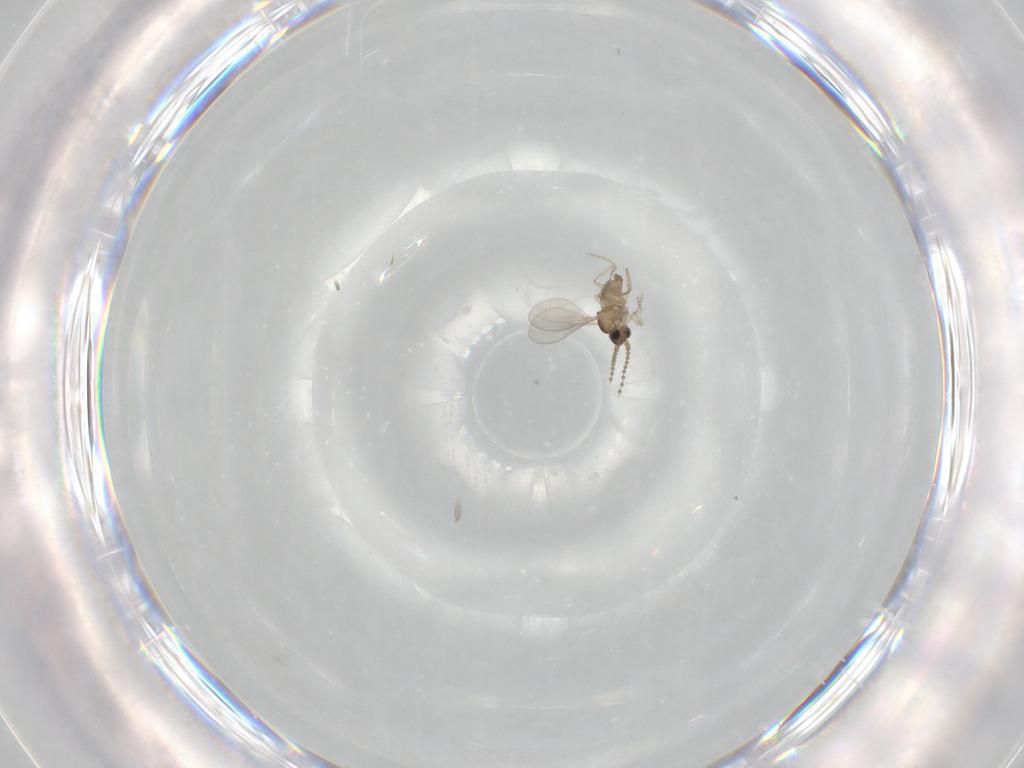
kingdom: Animalia
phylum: Arthropoda
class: Insecta
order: Diptera
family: Cecidomyiidae
